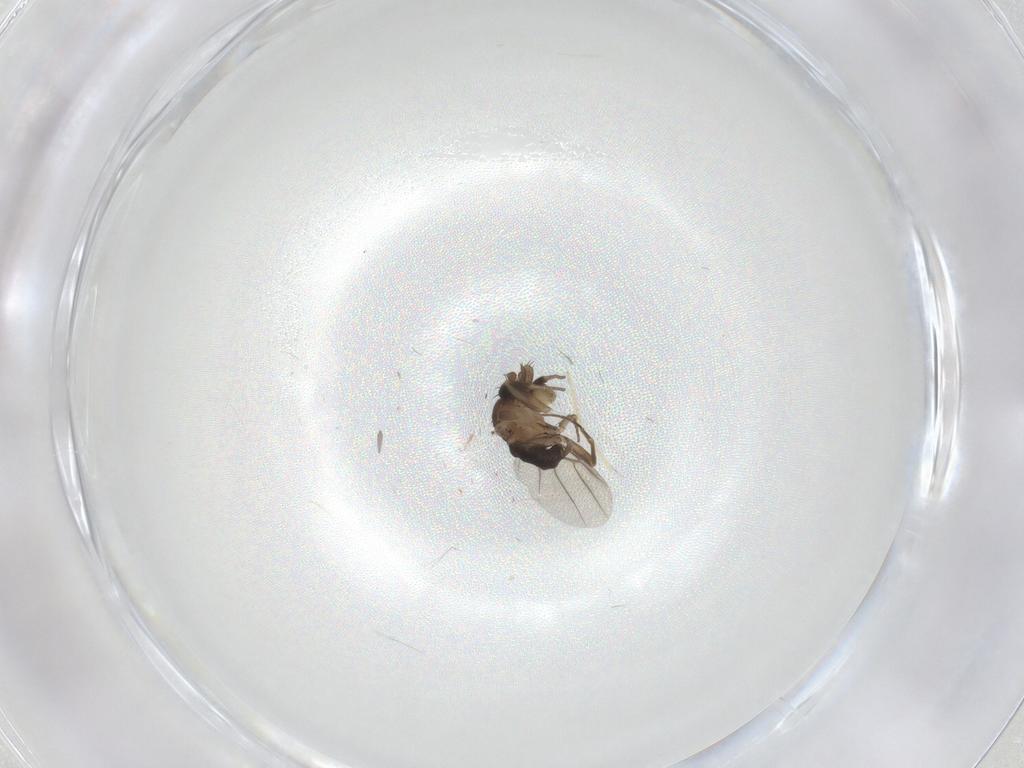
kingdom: Animalia
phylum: Arthropoda
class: Insecta
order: Diptera
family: Phoridae
